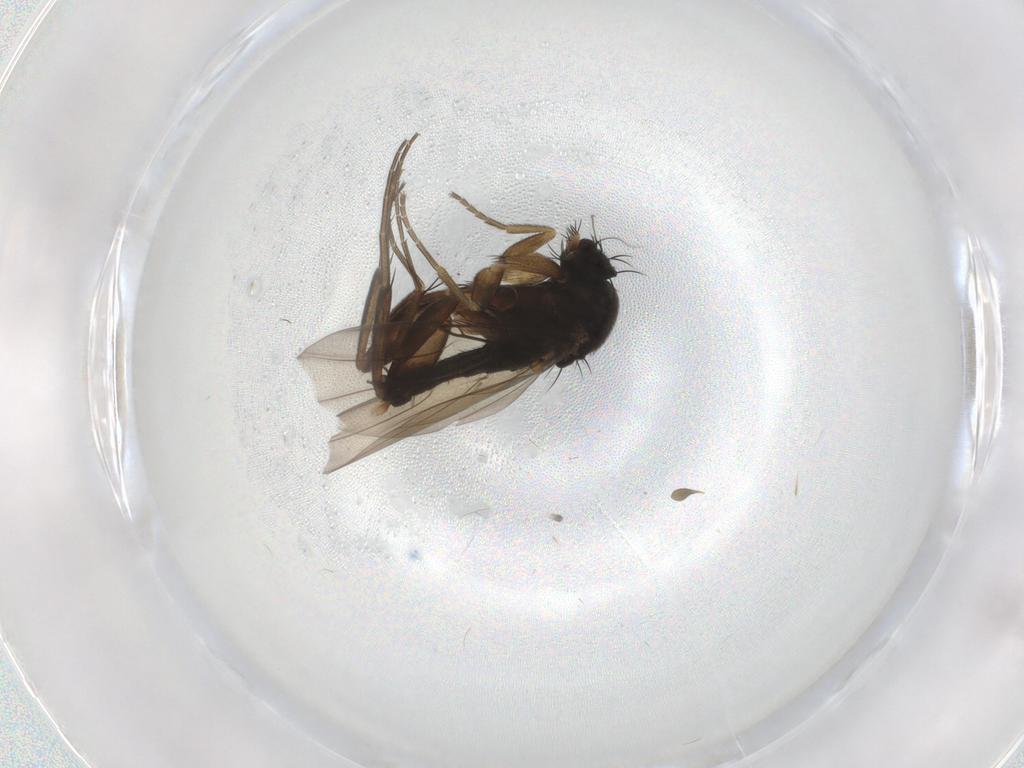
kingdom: Animalia
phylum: Arthropoda
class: Insecta
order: Diptera
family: Phoridae
